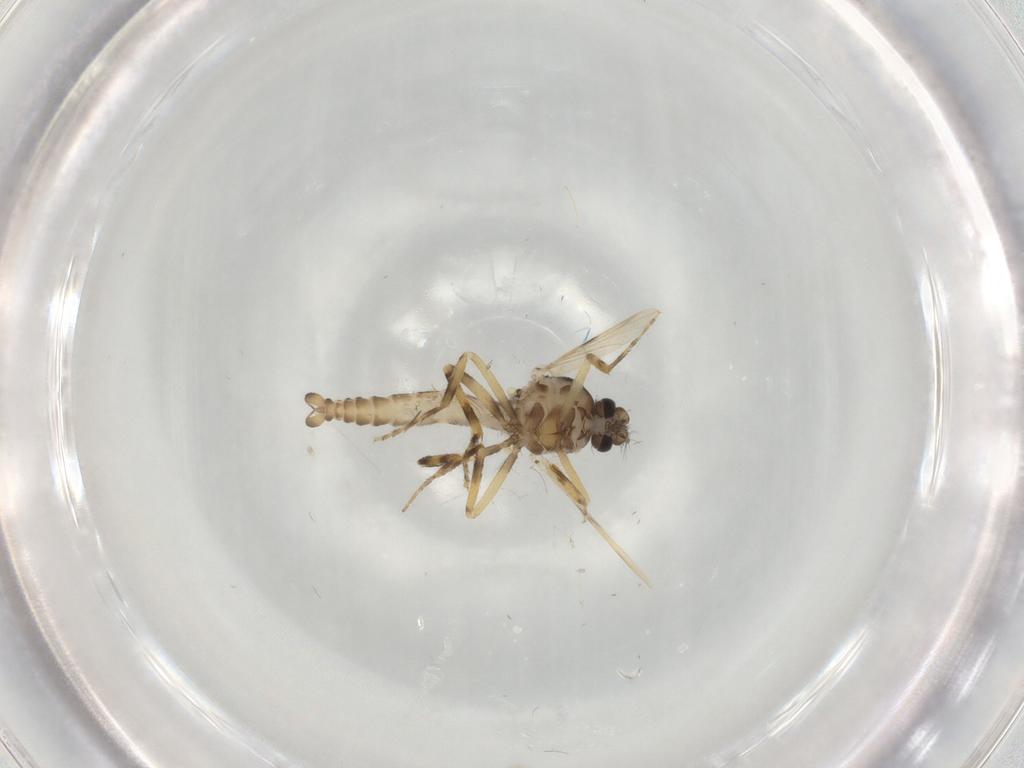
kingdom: Animalia
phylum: Arthropoda
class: Insecta
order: Diptera
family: Ceratopogonidae
